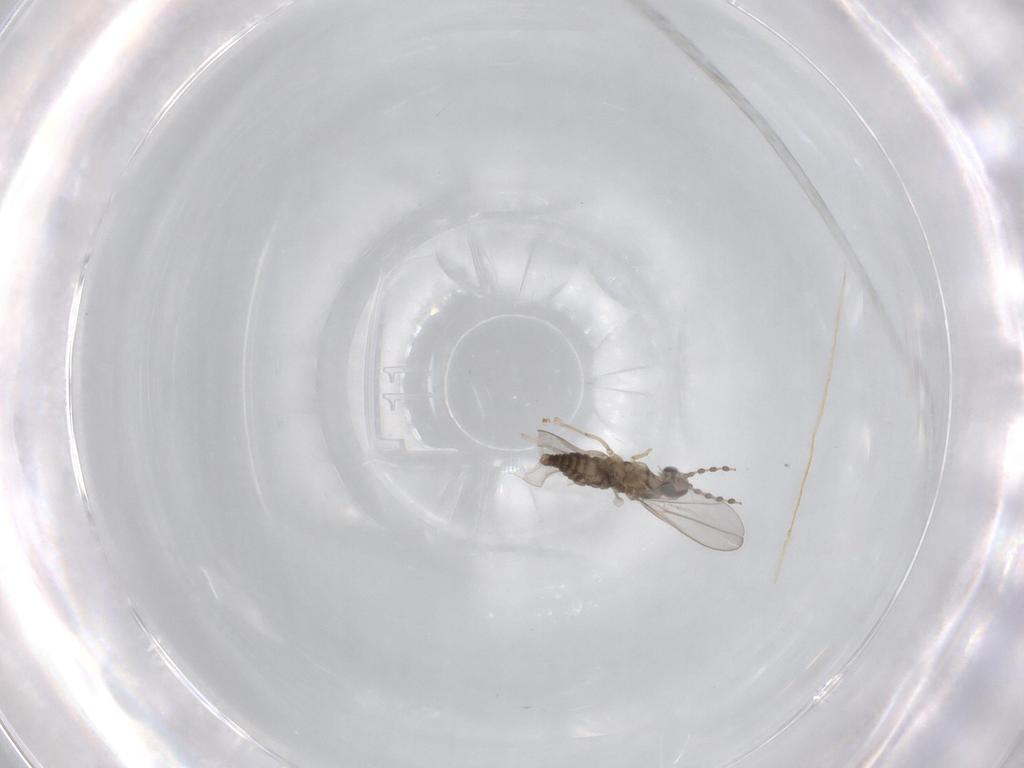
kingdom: Animalia
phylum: Arthropoda
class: Insecta
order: Diptera
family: Cecidomyiidae
